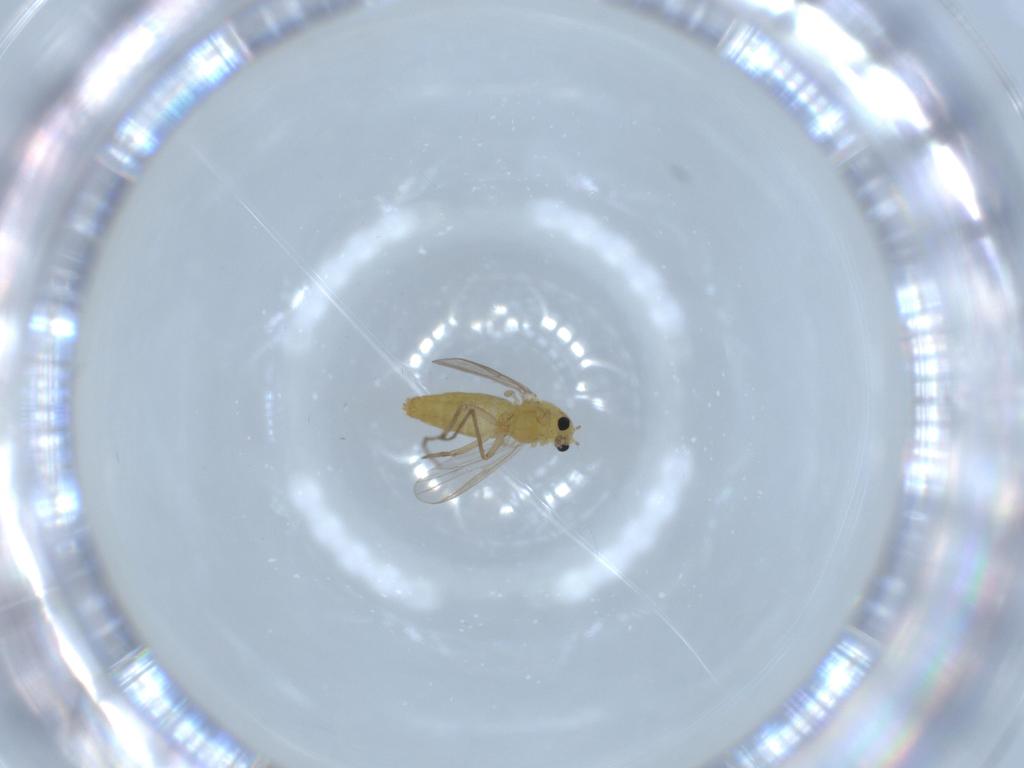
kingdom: Animalia
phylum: Arthropoda
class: Insecta
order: Diptera
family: Chironomidae
